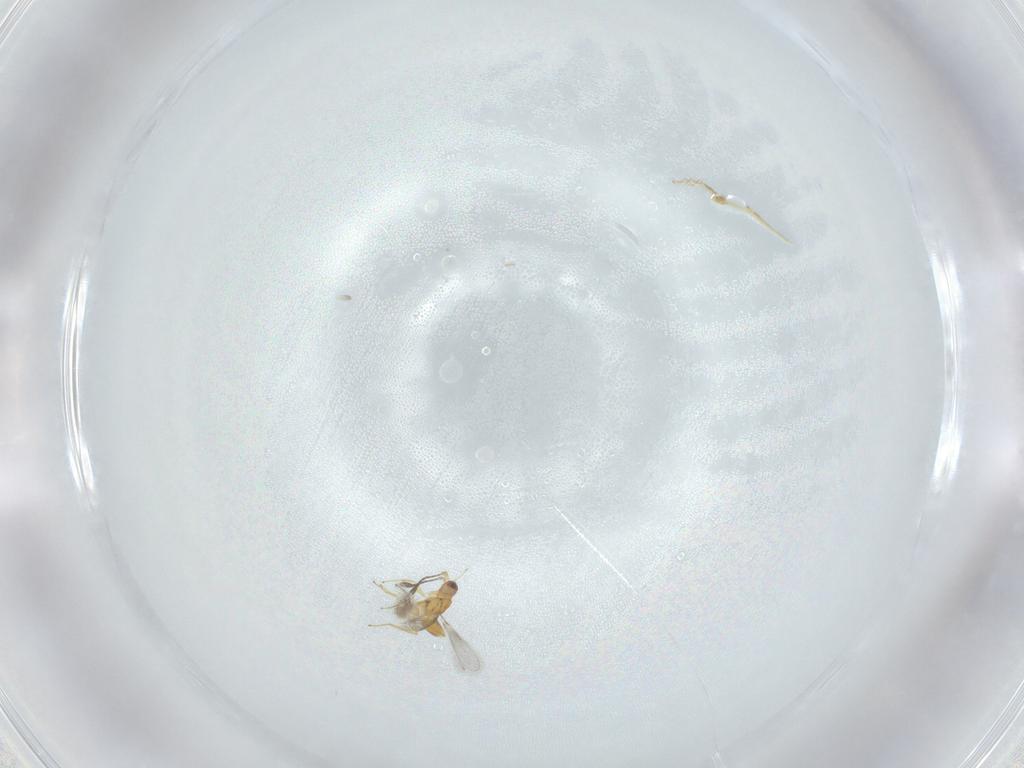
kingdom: Animalia
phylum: Arthropoda
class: Insecta
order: Hymenoptera
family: Mymaridae
